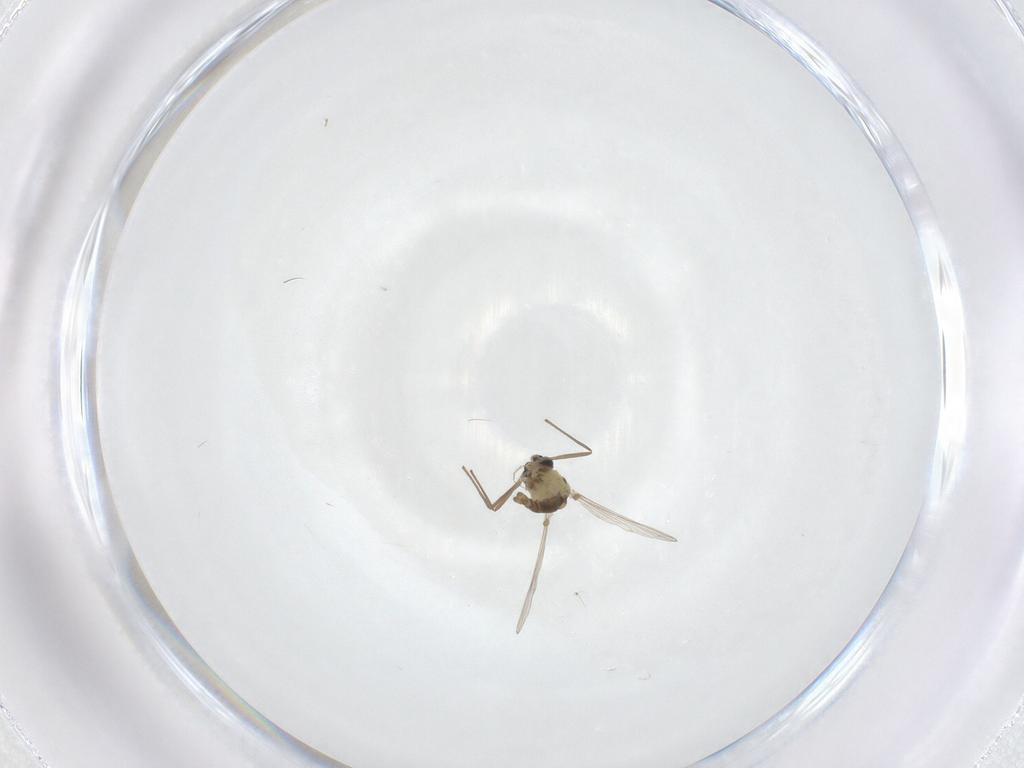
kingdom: Animalia
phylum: Arthropoda
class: Insecta
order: Diptera
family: Chironomidae
